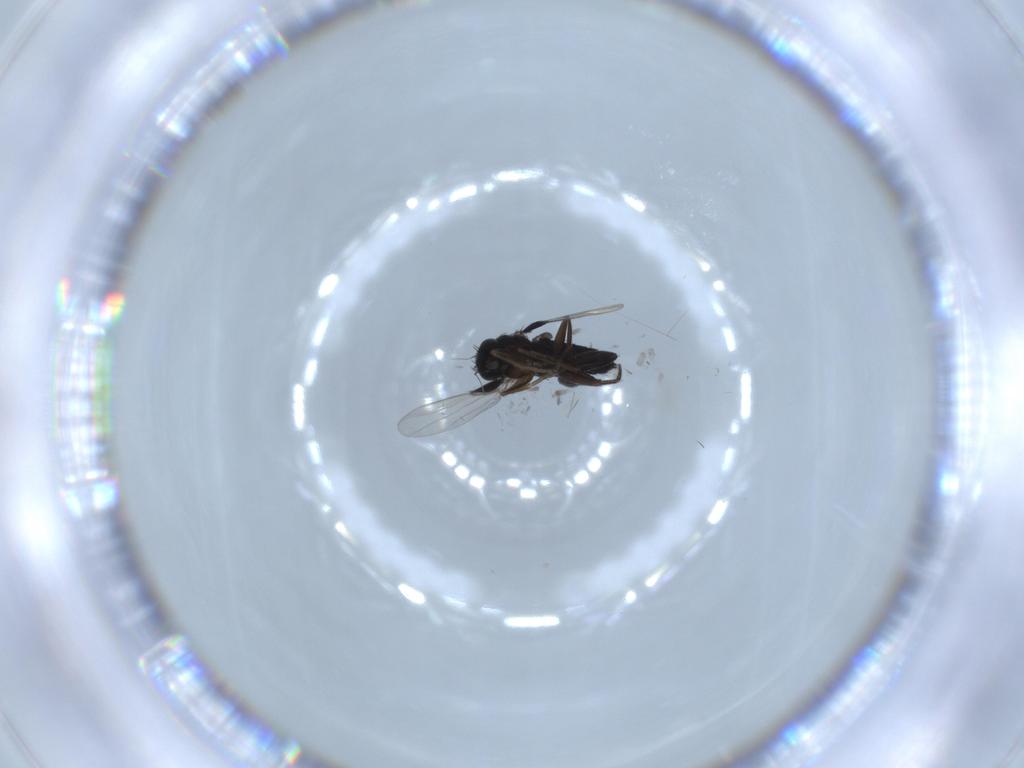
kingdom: Animalia
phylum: Arthropoda
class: Insecta
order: Diptera
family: Phoridae
